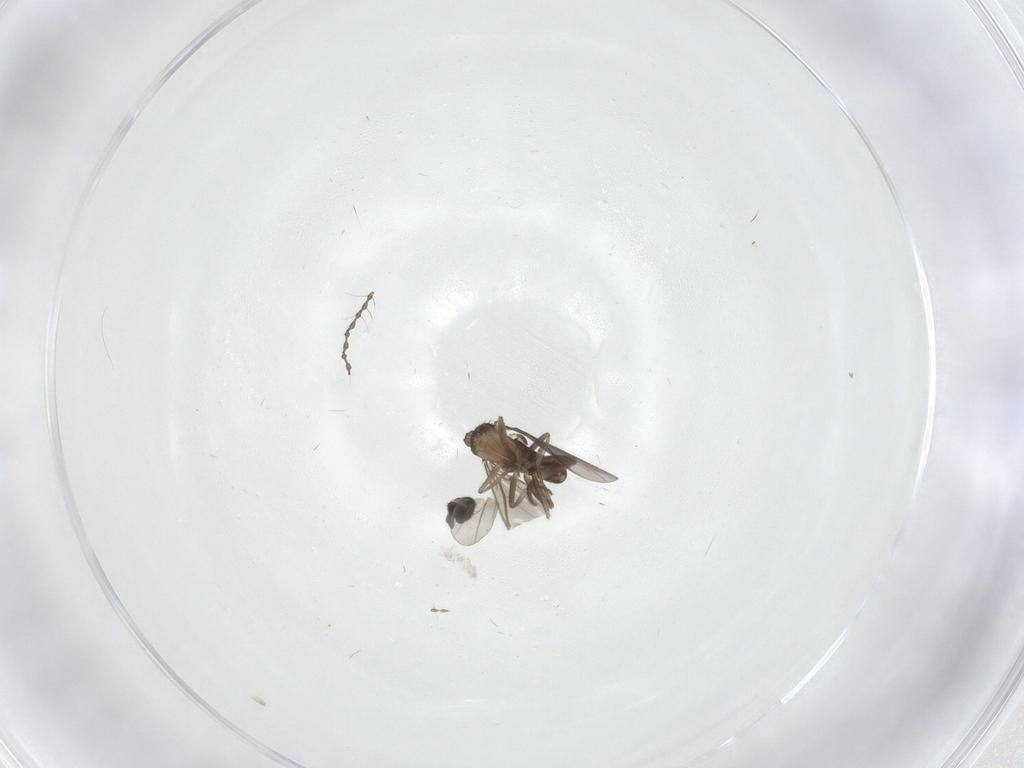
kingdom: Animalia
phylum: Arthropoda
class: Insecta
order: Diptera
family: Cecidomyiidae
